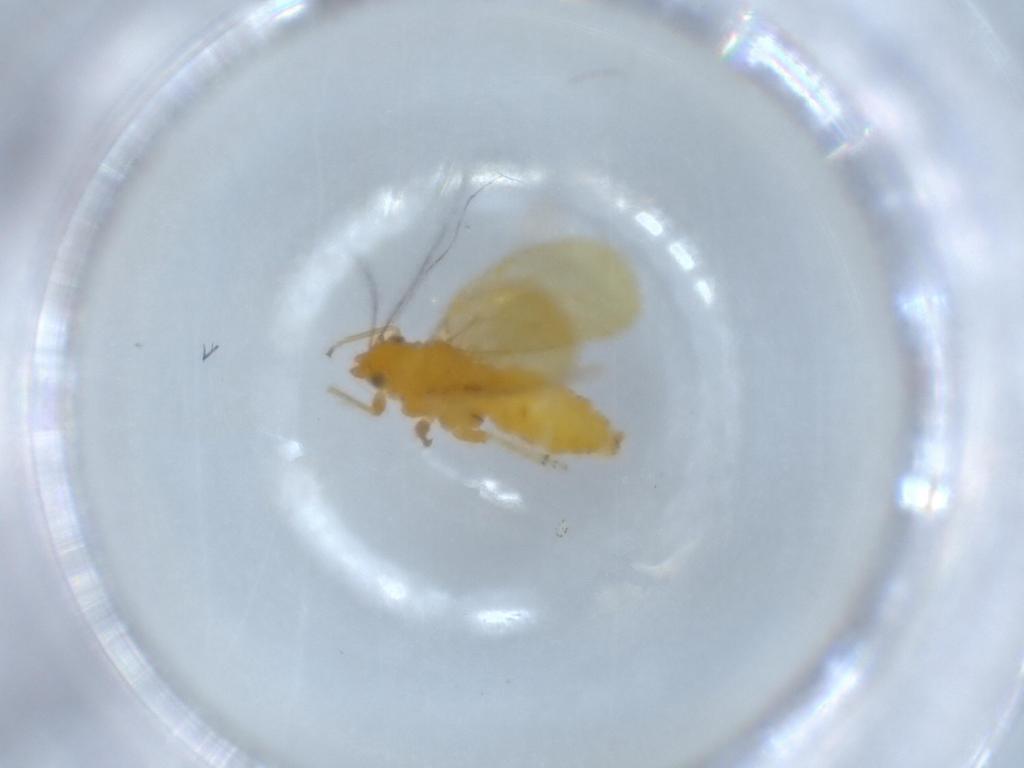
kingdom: Animalia
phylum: Arthropoda
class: Insecta
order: Hemiptera
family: Psyllidae
